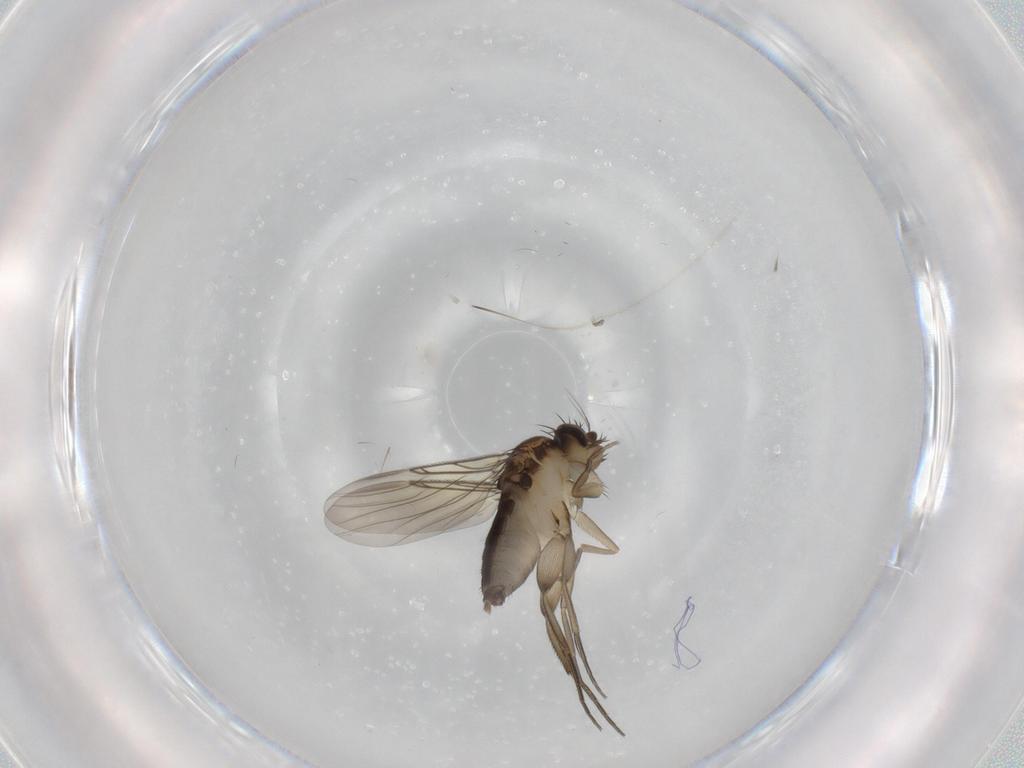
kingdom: Animalia
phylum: Arthropoda
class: Insecta
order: Diptera
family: Phoridae
